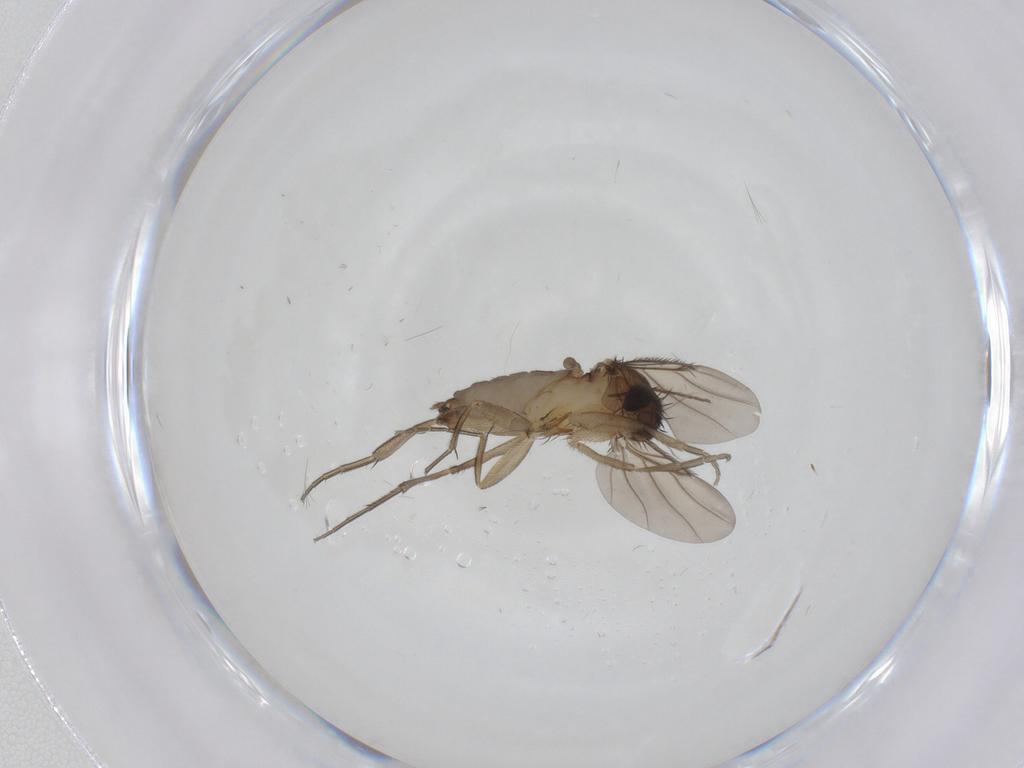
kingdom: Animalia
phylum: Arthropoda
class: Insecta
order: Diptera
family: Phoridae
